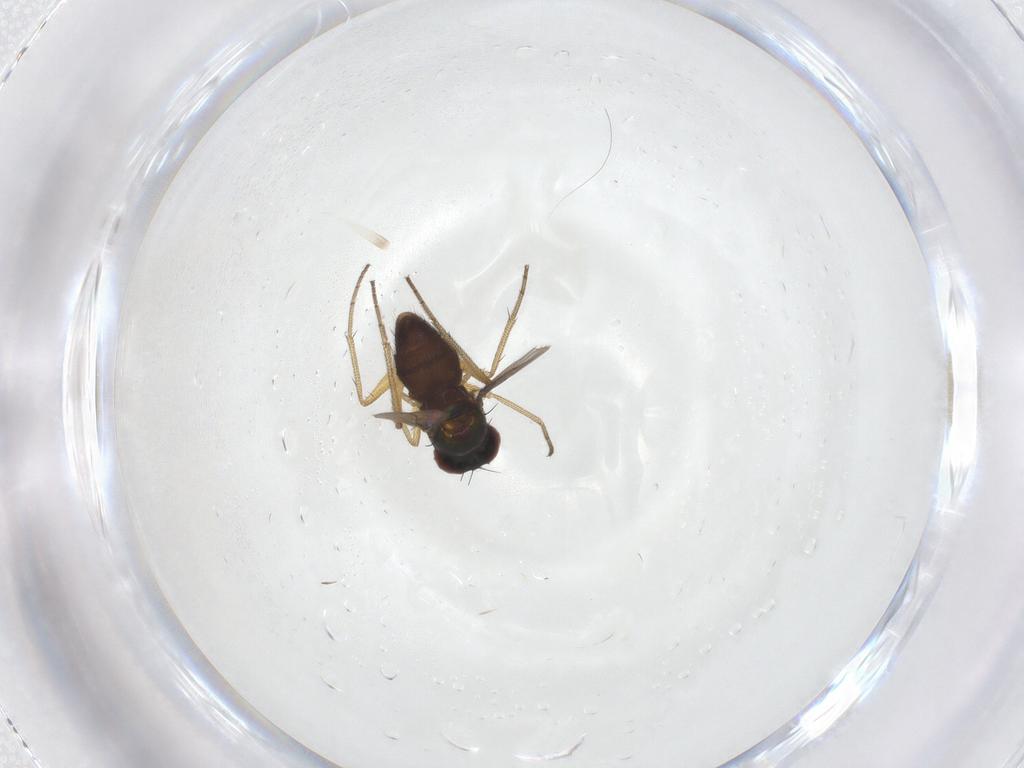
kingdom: Animalia
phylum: Arthropoda
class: Insecta
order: Diptera
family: Dolichopodidae
